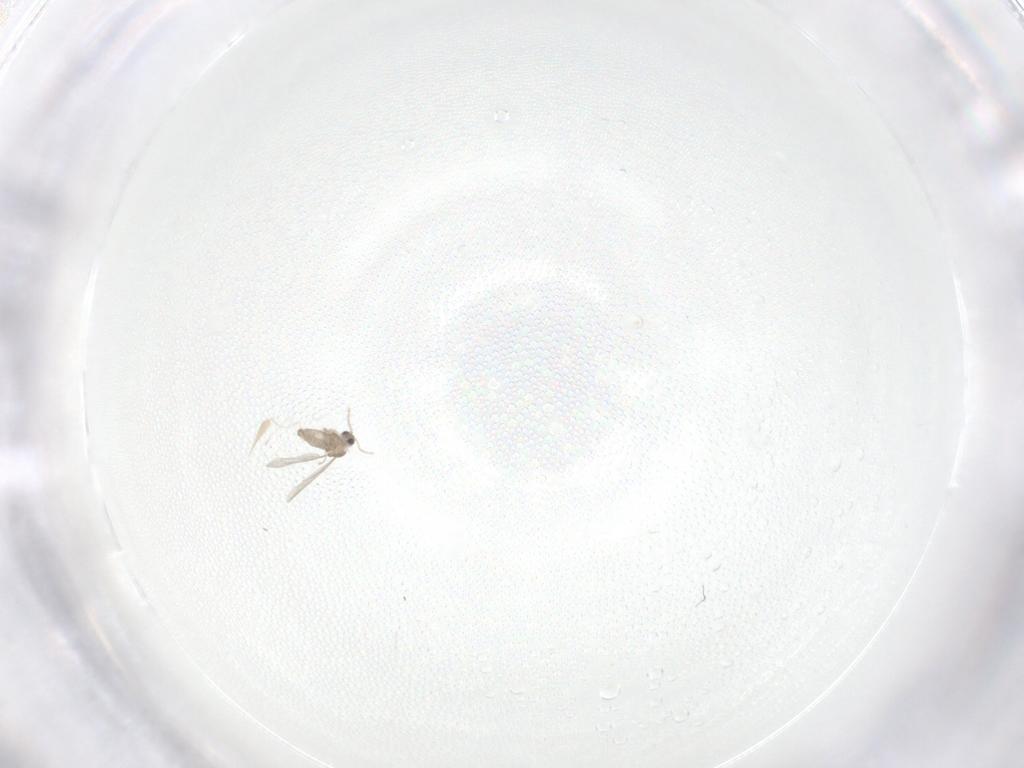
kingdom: Animalia
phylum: Arthropoda
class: Insecta
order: Diptera
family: Cecidomyiidae
